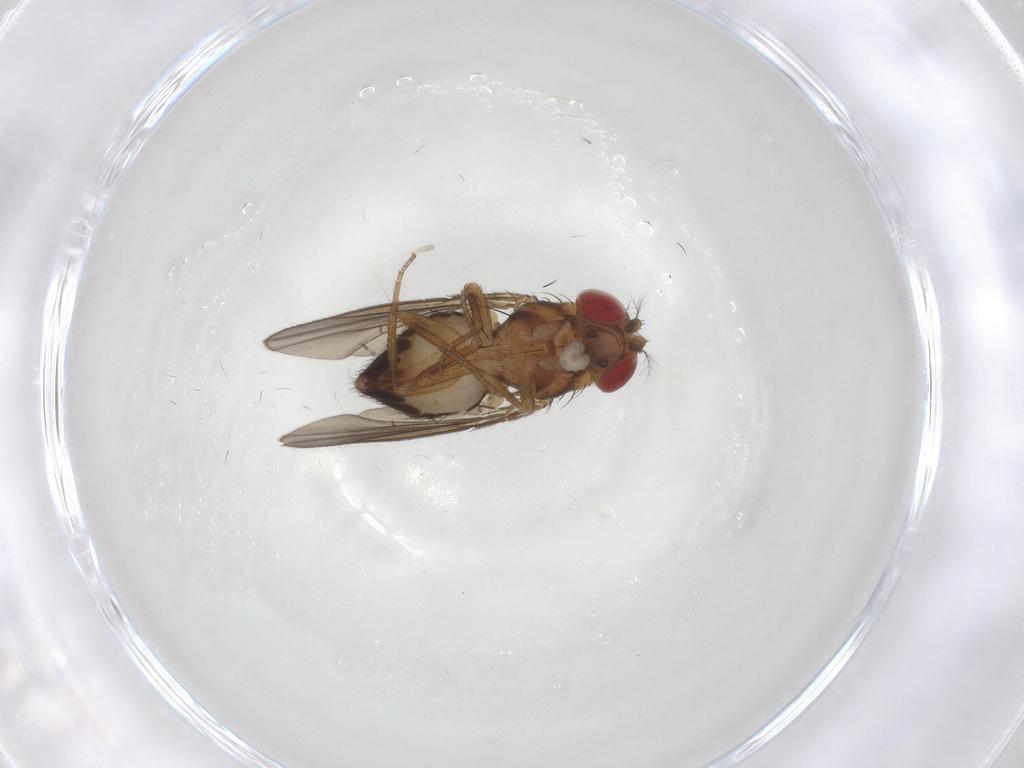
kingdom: Animalia
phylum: Arthropoda
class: Insecta
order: Diptera
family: Drosophilidae
